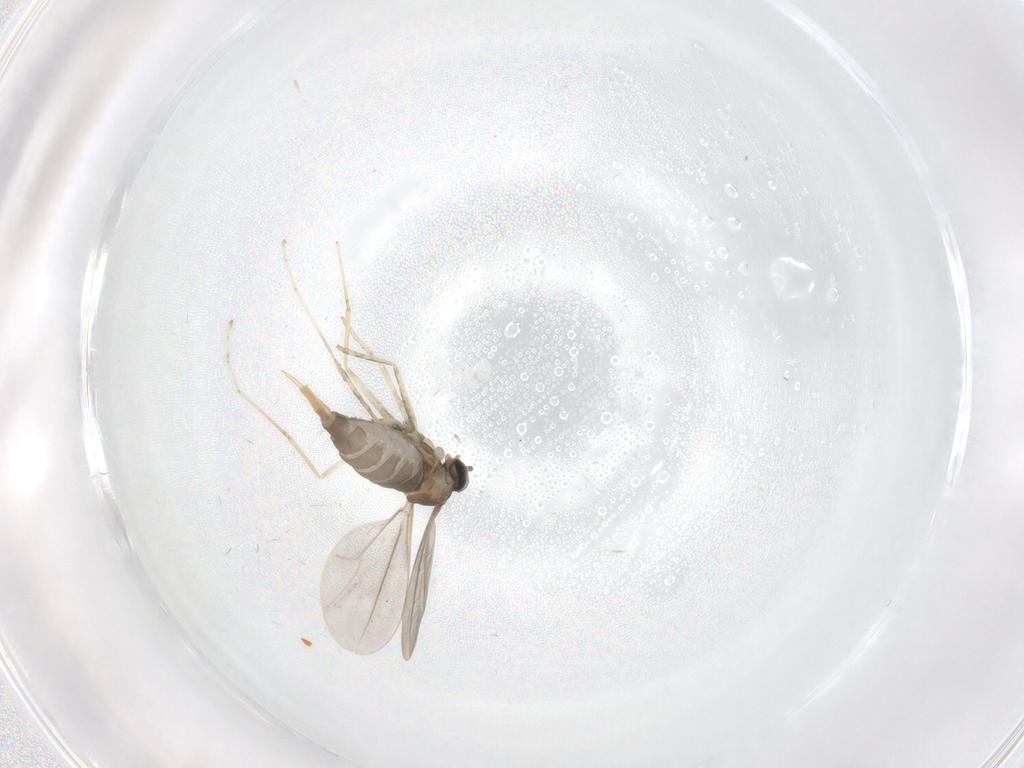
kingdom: Animalia
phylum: Arthropoda
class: Insecta
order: Diptera
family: Cecidomyiidae
